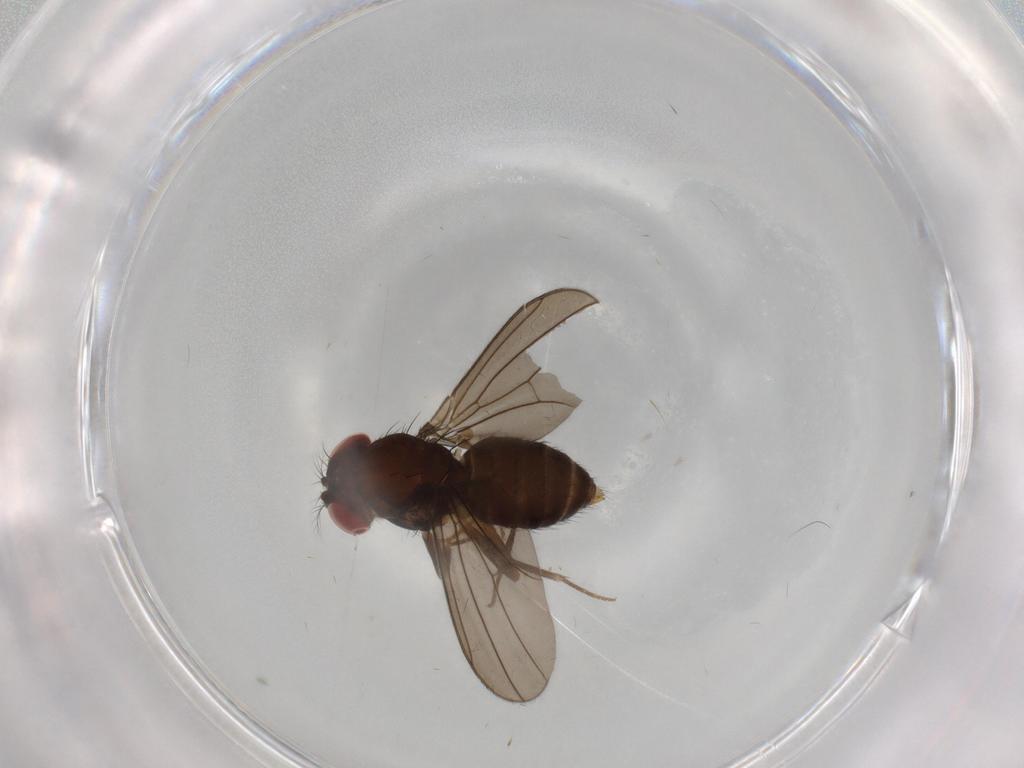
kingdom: Animalia
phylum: Arthropoda
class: Insecta
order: Diptera
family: Drosophilidae
